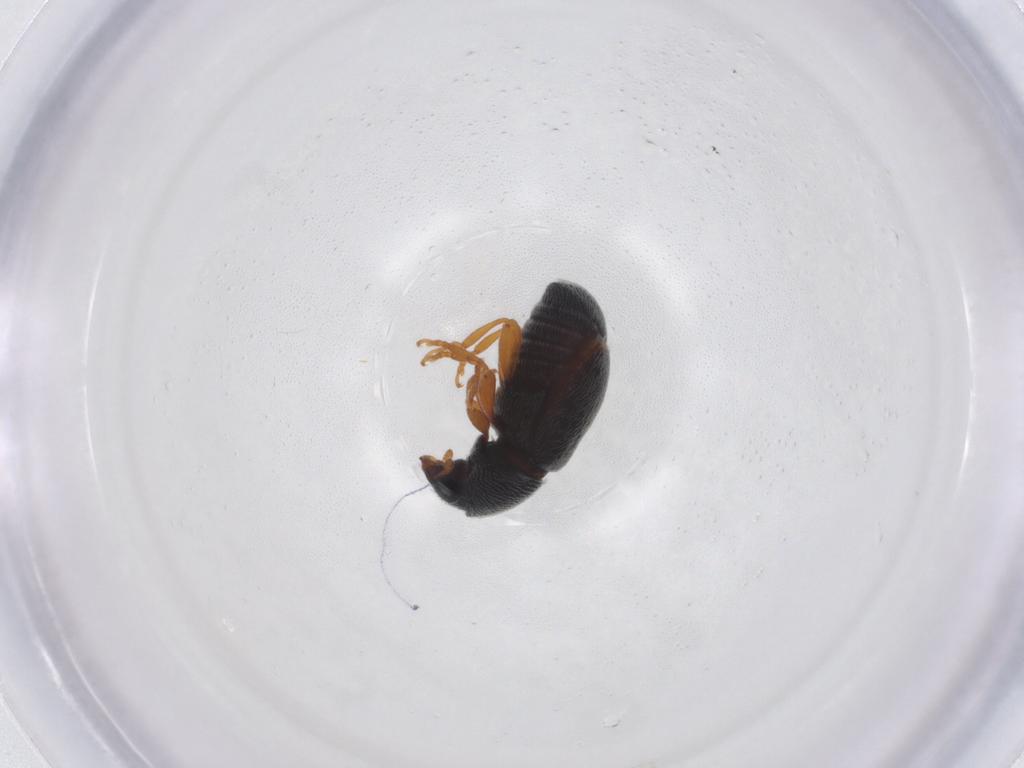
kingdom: Animalia
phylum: Arthropoda
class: Insecta
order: Coleoptera
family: Anthribidae
